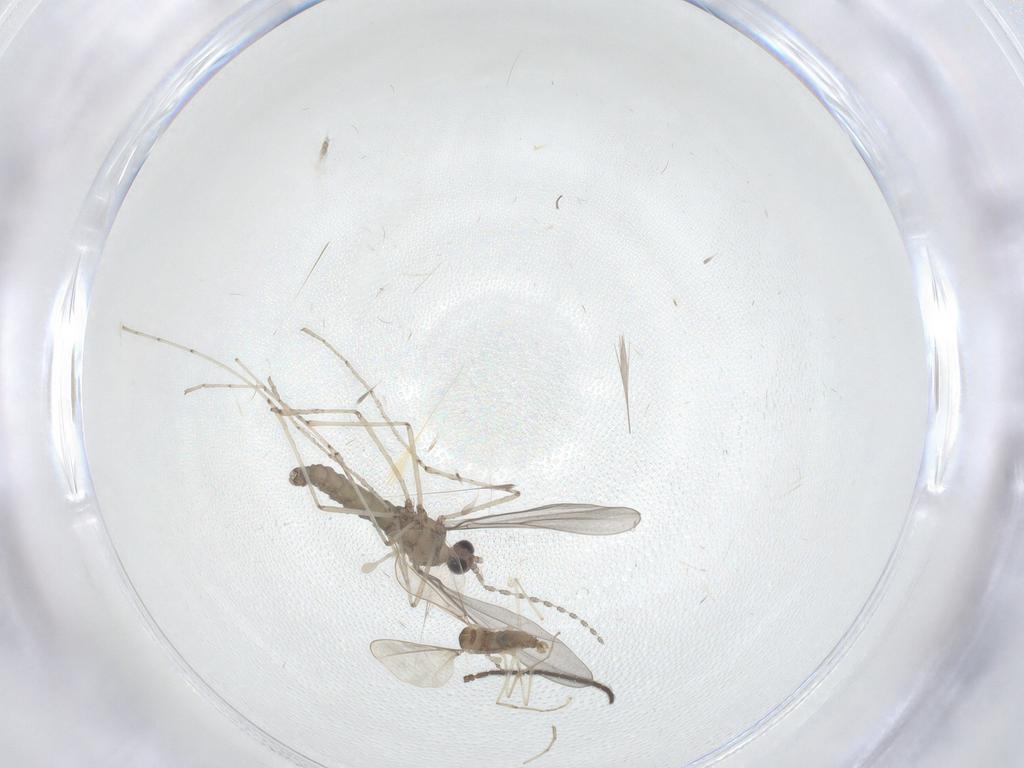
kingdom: Animalia
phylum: Arthropoda
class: Insecta
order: Diptera
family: Cecidomyiidae
